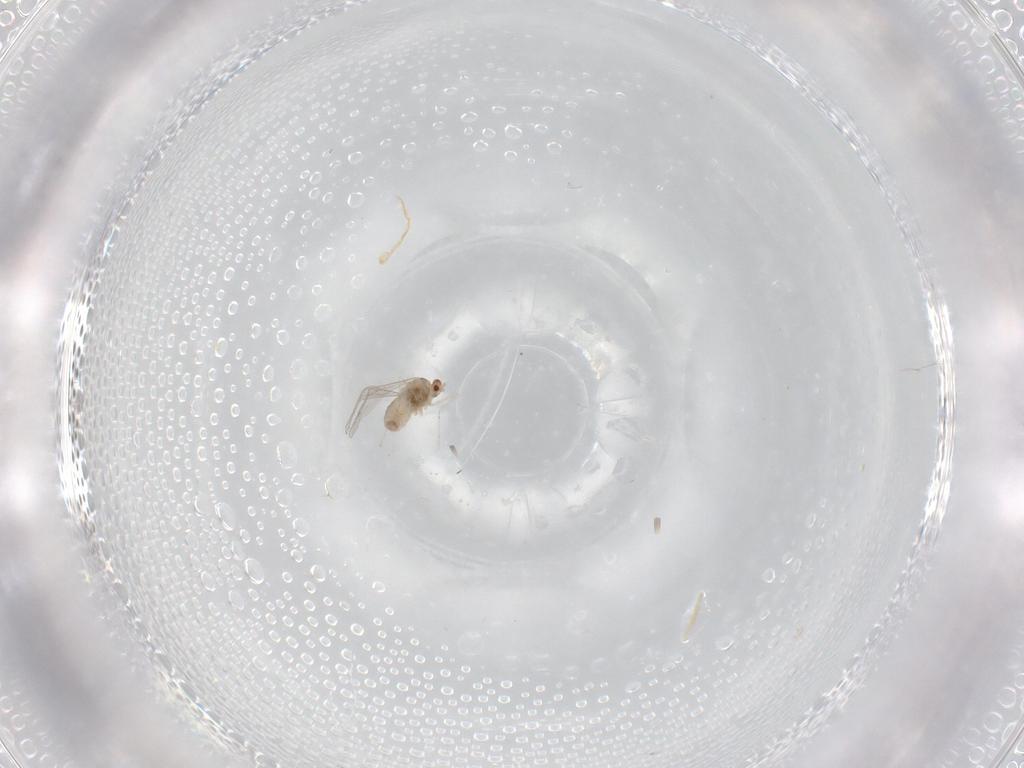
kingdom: Animalia
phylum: Arthropoda
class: Insecta
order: Diptera
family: Cecidomyiidae
